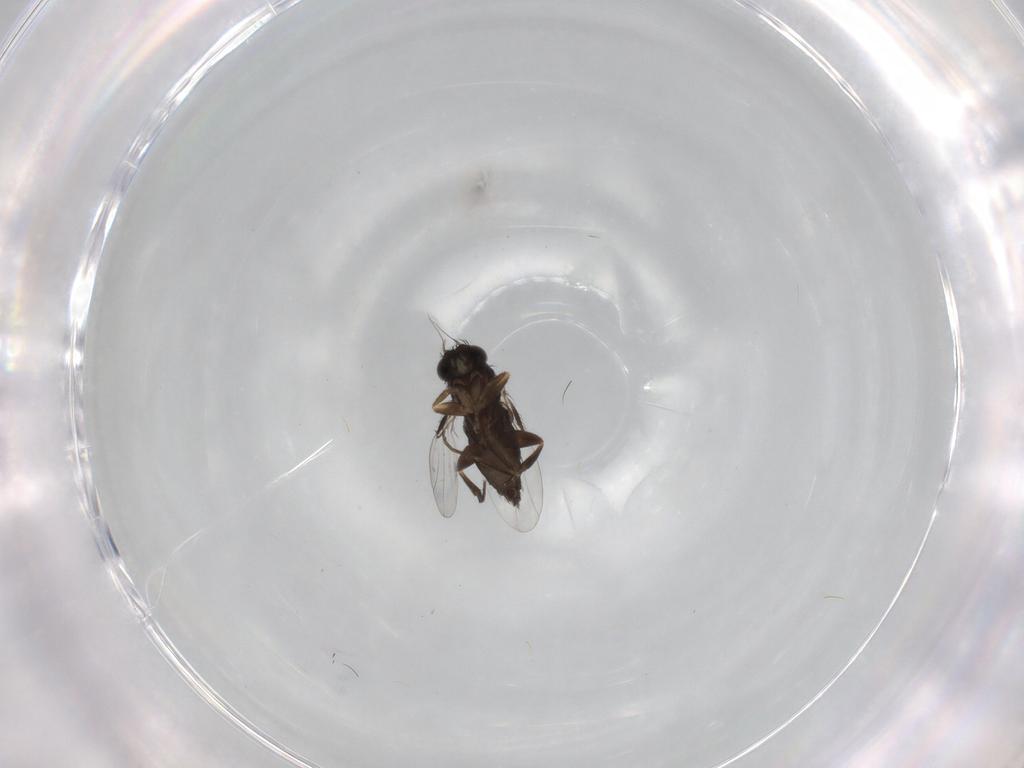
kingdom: Animalia
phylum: Arthropoda
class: Insecta
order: Diptera
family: Phoridae
